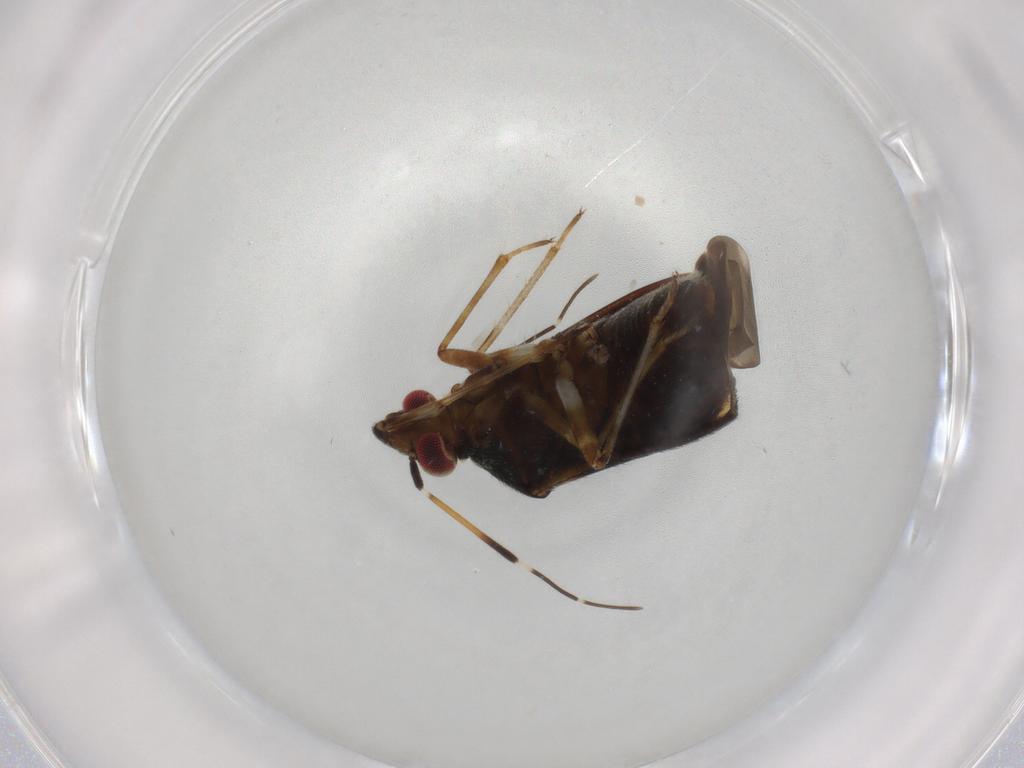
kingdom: Animalia
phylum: Arthropoda
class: Insecta
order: Hemiptera
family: Miridae
